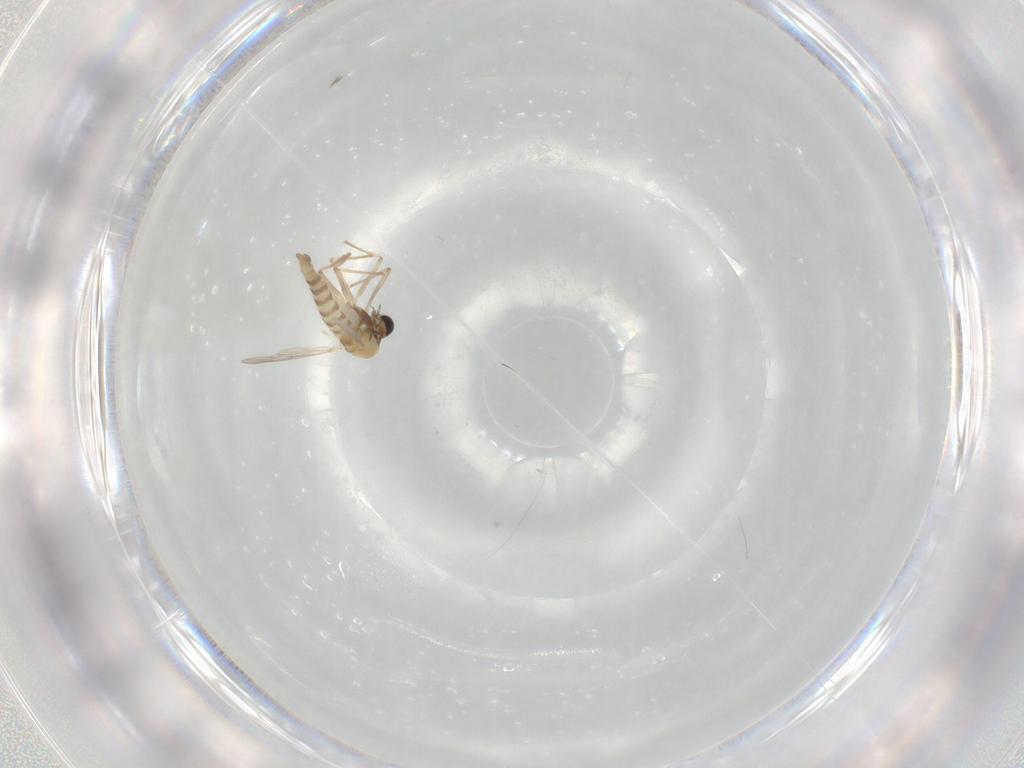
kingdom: Animalia
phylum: Arthropoda
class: Insecta
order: Diptera
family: Chironomidae
